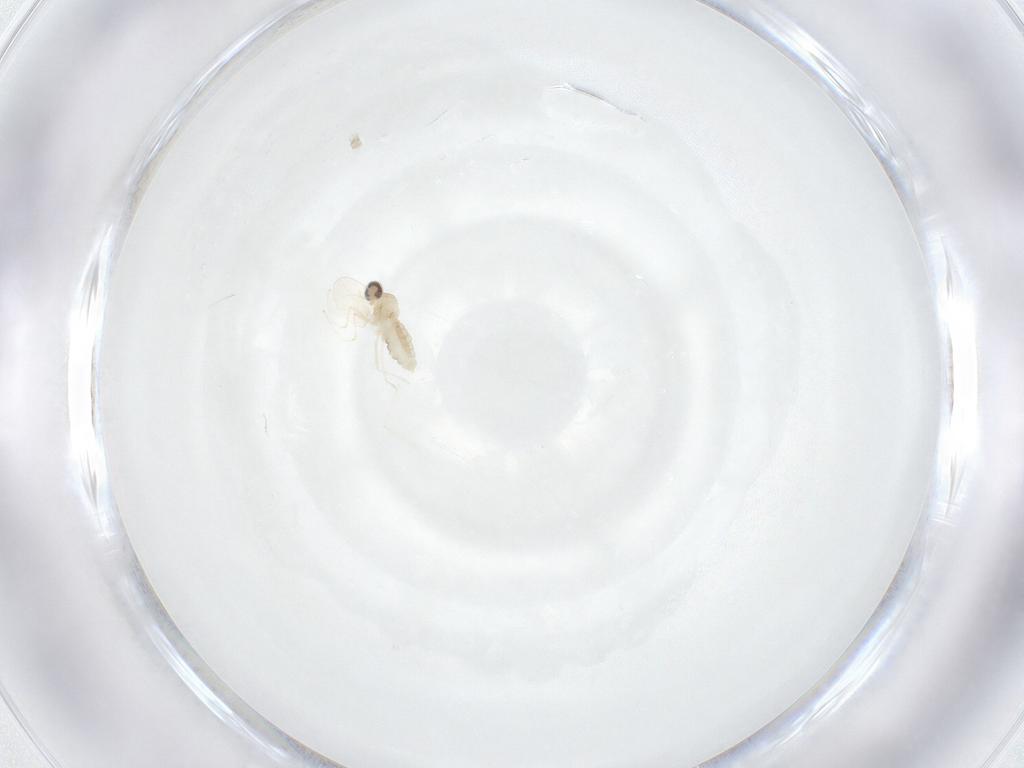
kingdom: Animalia
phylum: Arthropoda
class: Insecta
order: Diptera
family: Cecidomyiidae
